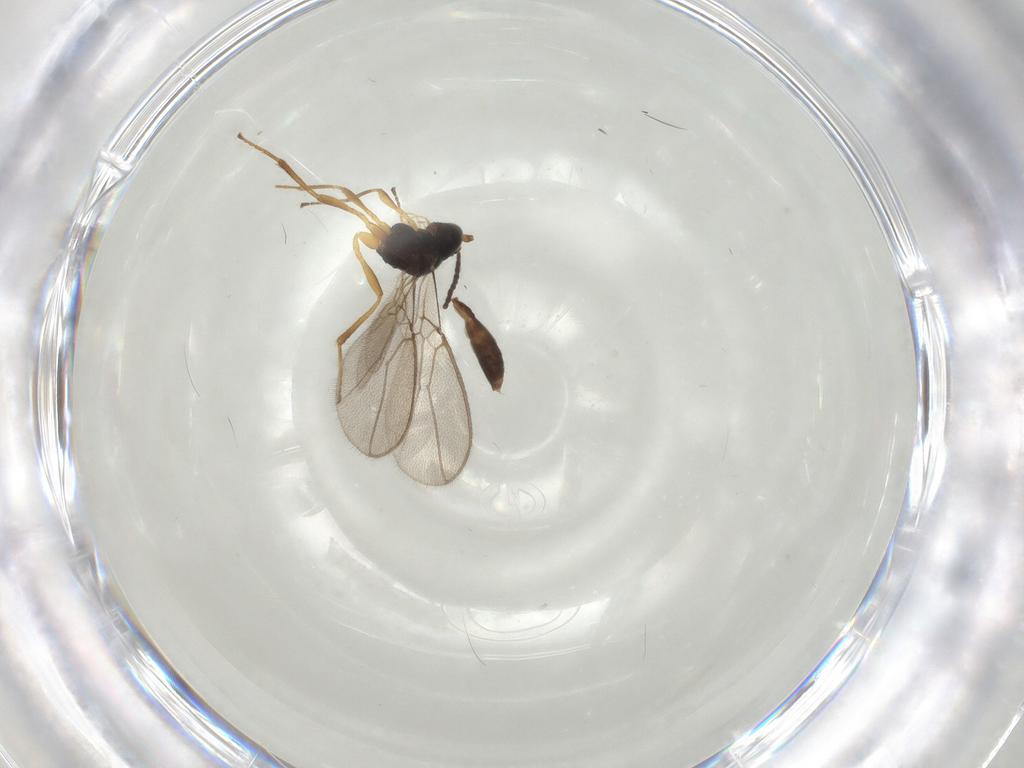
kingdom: Animalia
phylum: Arthropoda
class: Insecta
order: Hymenoptera
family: Braconidae
